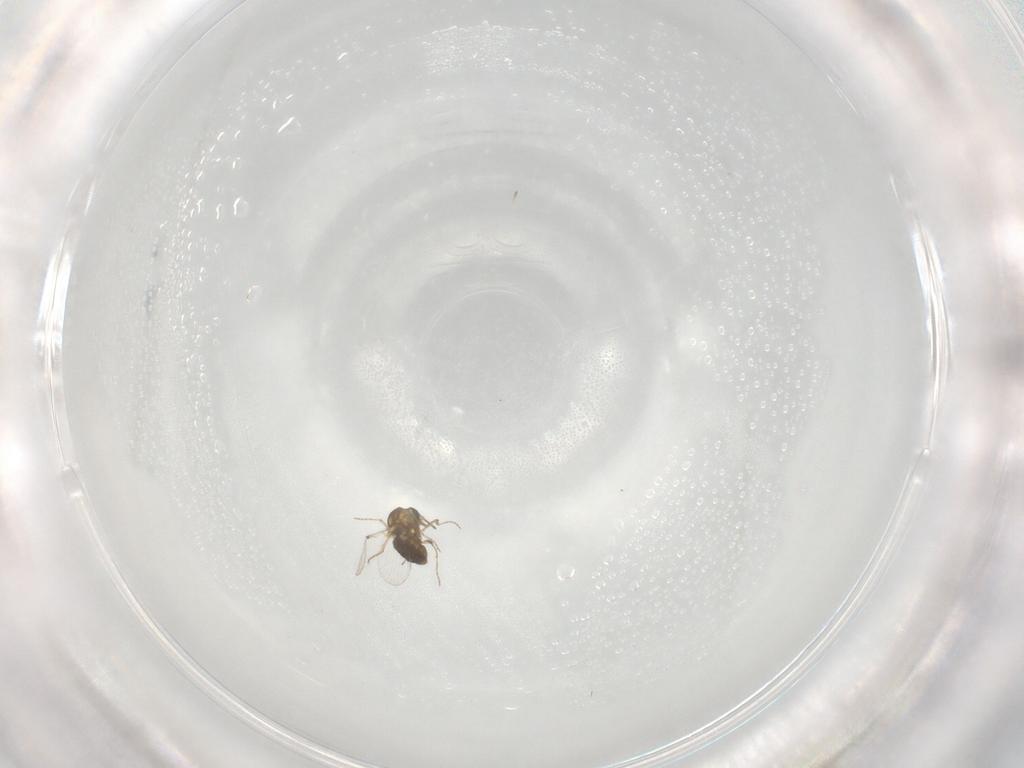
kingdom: Animalia
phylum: Arthropoda
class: Insecta
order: Diptera
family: Ceratopogonidae
